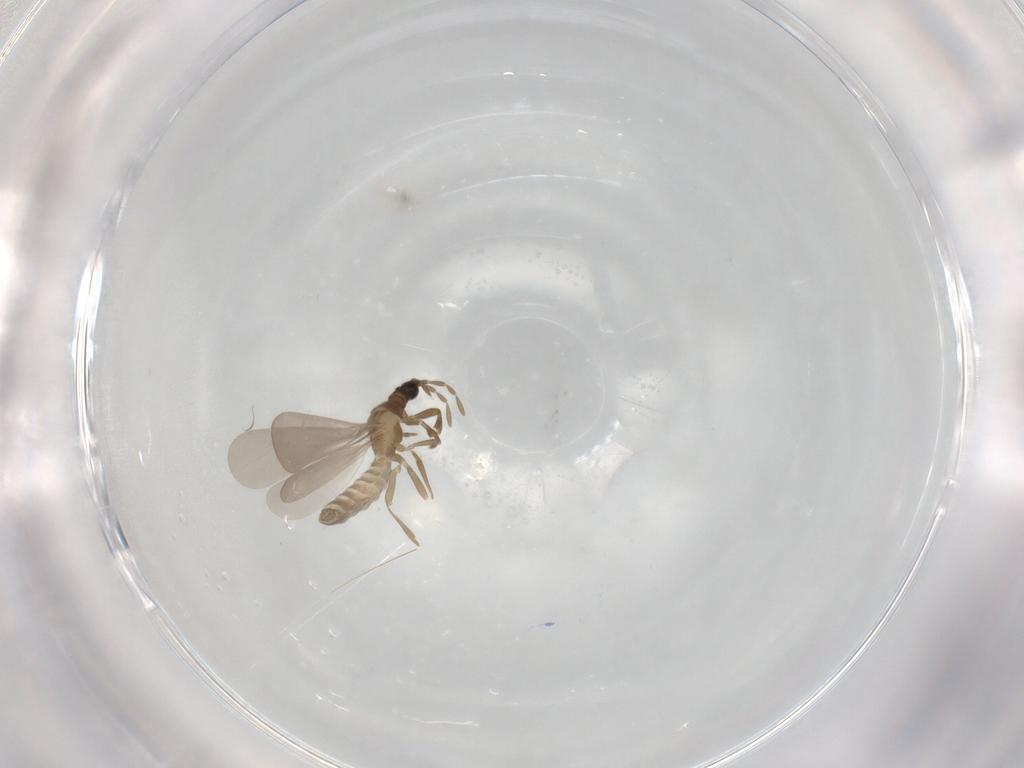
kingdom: Animalia
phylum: Arthropoda
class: Insecta
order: Hemiptera
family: Enicocephalidae
